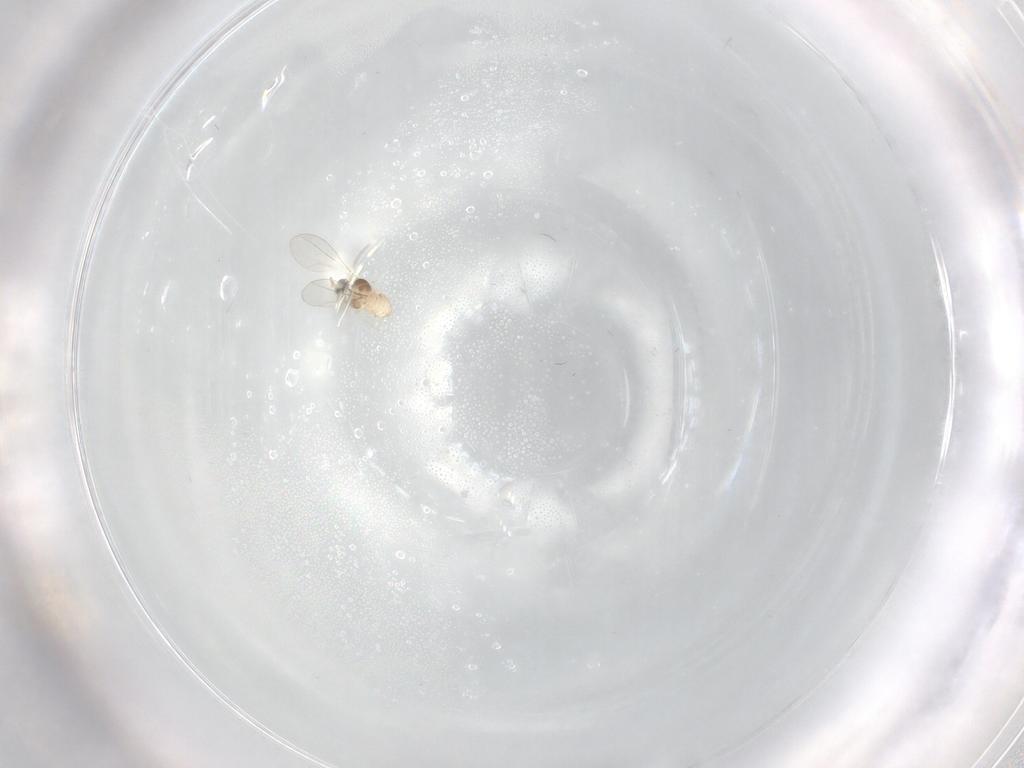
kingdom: Animalia
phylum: Arthropoda
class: Insecta
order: Diptera
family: Cecidomyiidae
